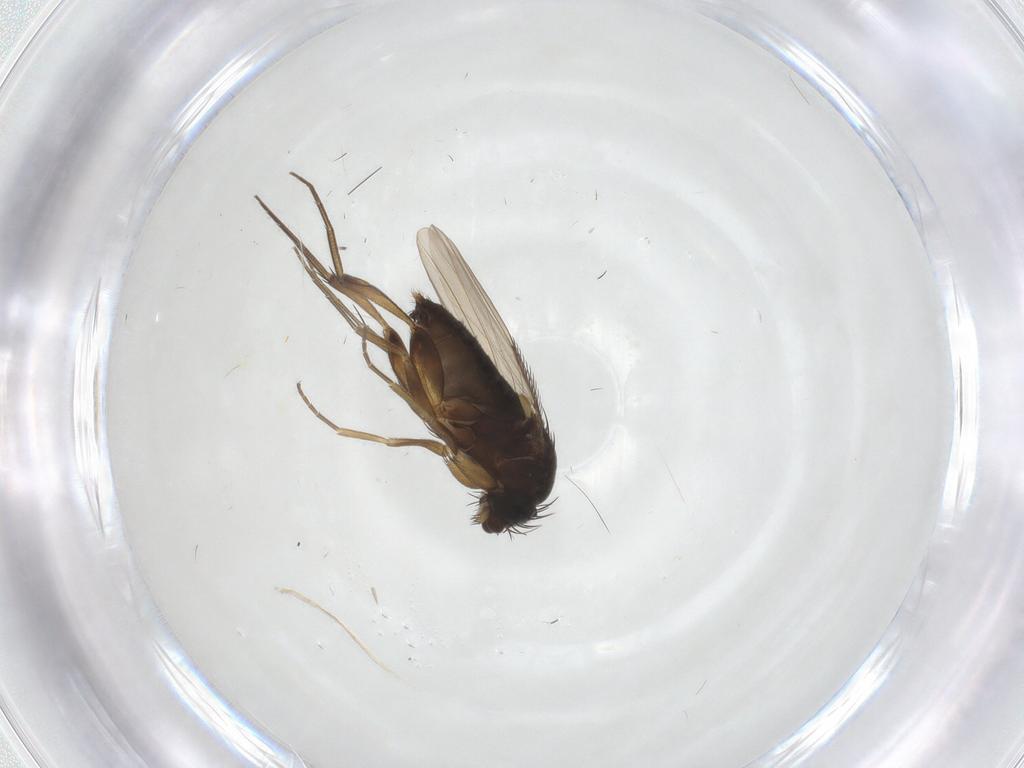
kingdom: Animalia
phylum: Arthropoda
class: Insecta
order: Diptera
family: Phoridae
